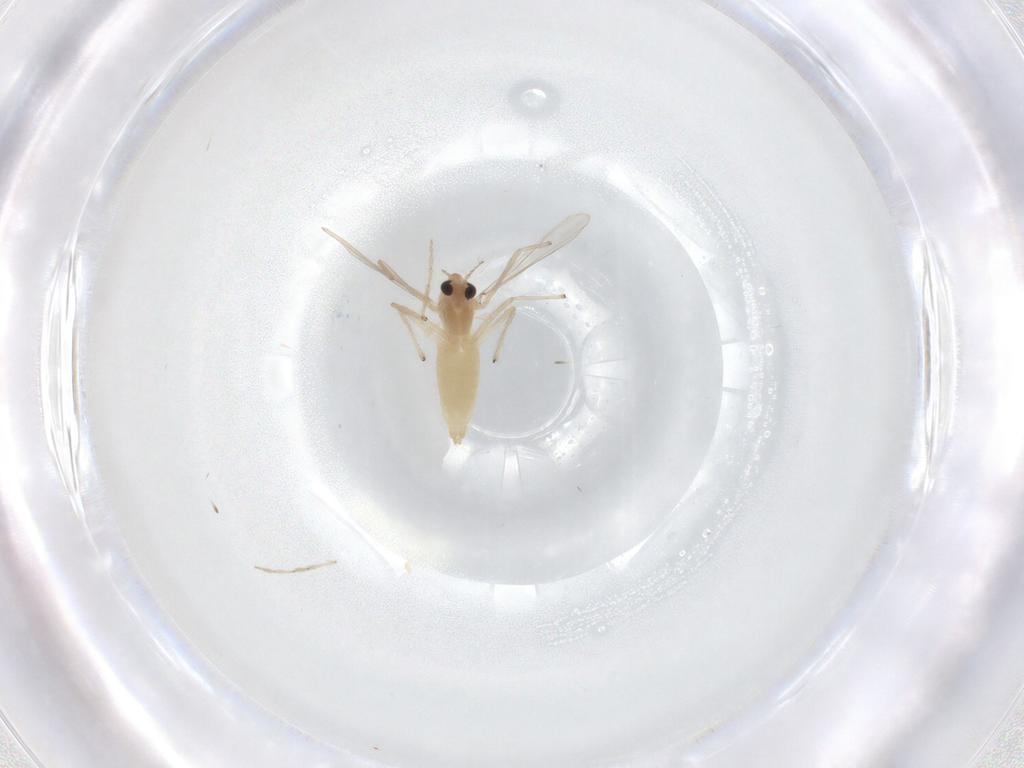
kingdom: Animalia
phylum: Arthropoda
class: Insecta
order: Diptera
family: Chironomidae
